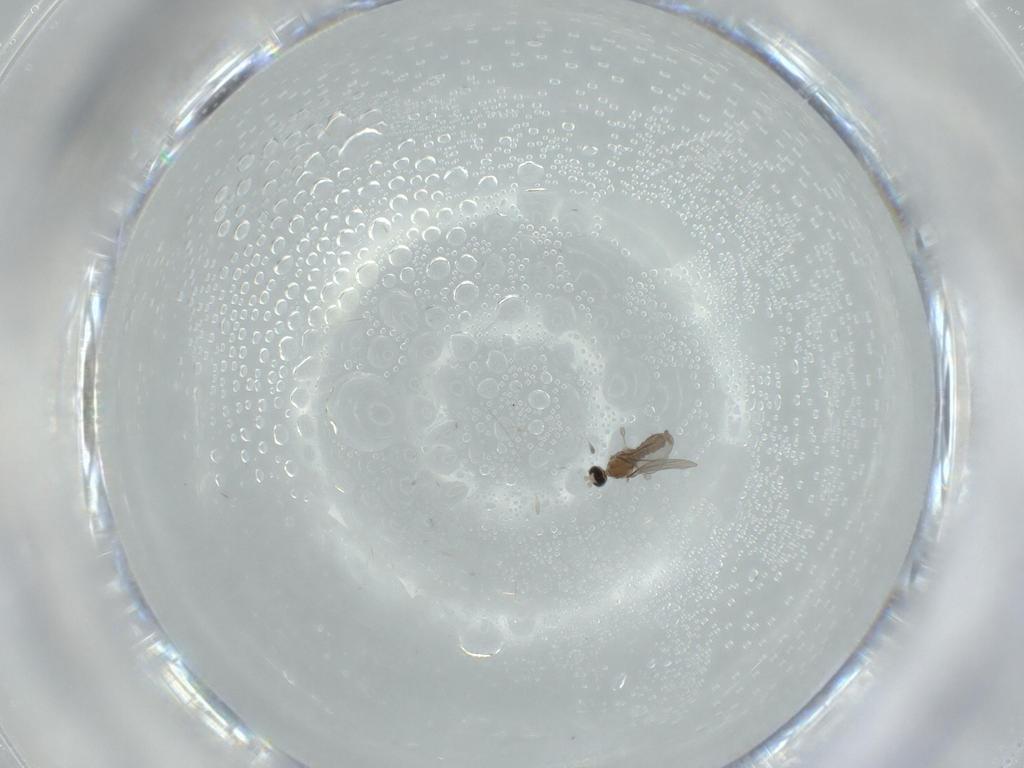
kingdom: Animalia
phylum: Arthropoda
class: Insecta
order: Diptera
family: Cecidomyiidae
